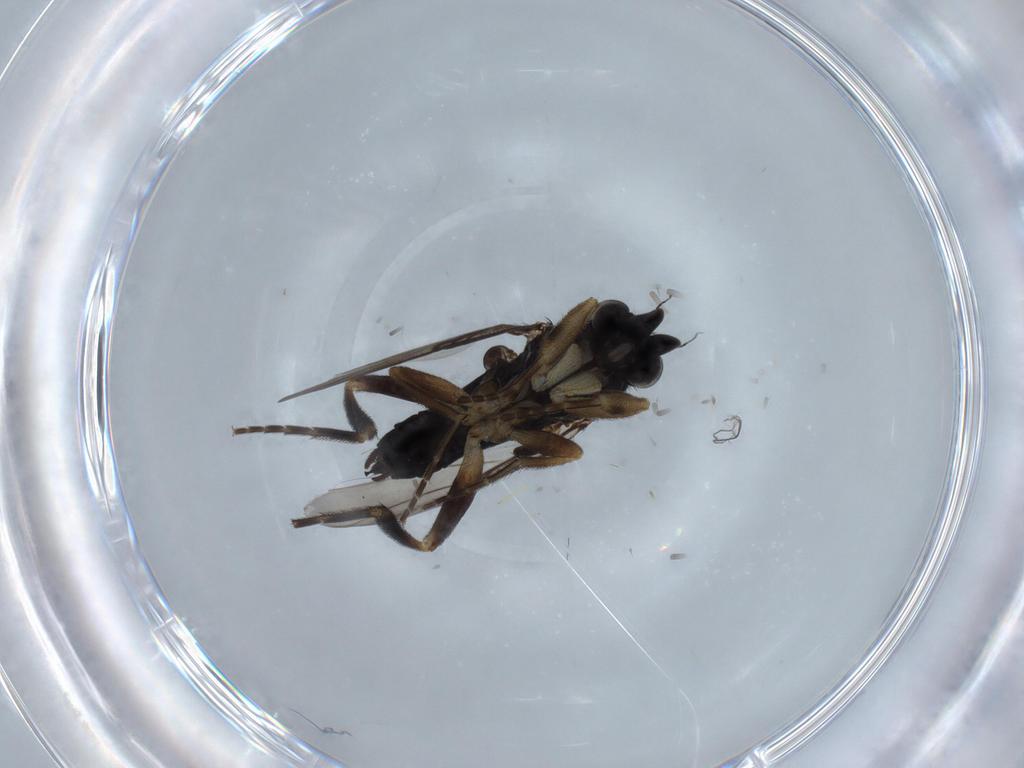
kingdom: Animalia
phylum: Arthropoda
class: Insecta
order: Diptera
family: Phoridae
